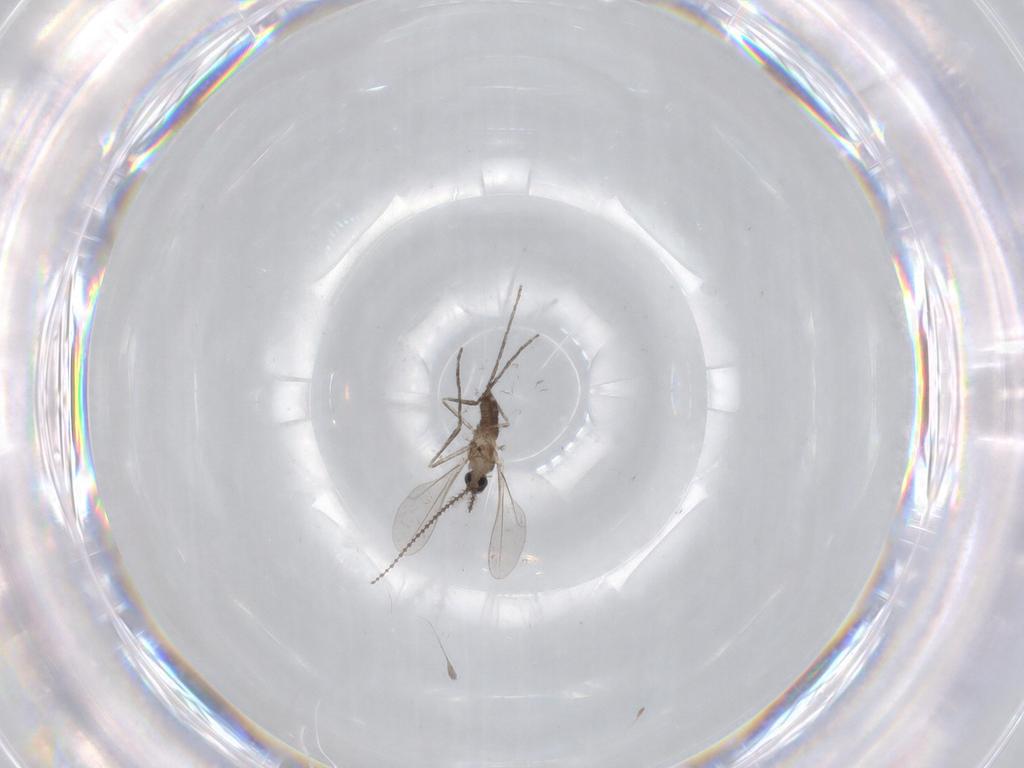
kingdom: Animalia
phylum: Arthropoda
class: Insecta
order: Diptera
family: Cecidomyiidae
